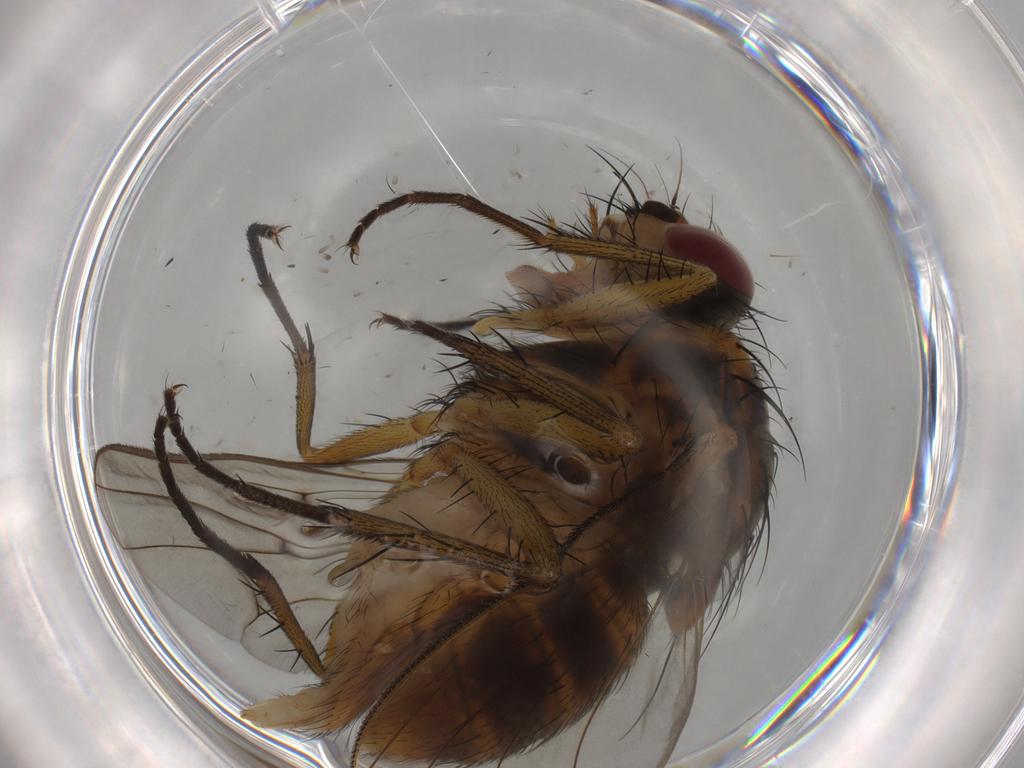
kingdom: Animalia
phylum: Arthropoda
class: Insecta
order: Diptera
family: Anthomyiidae
